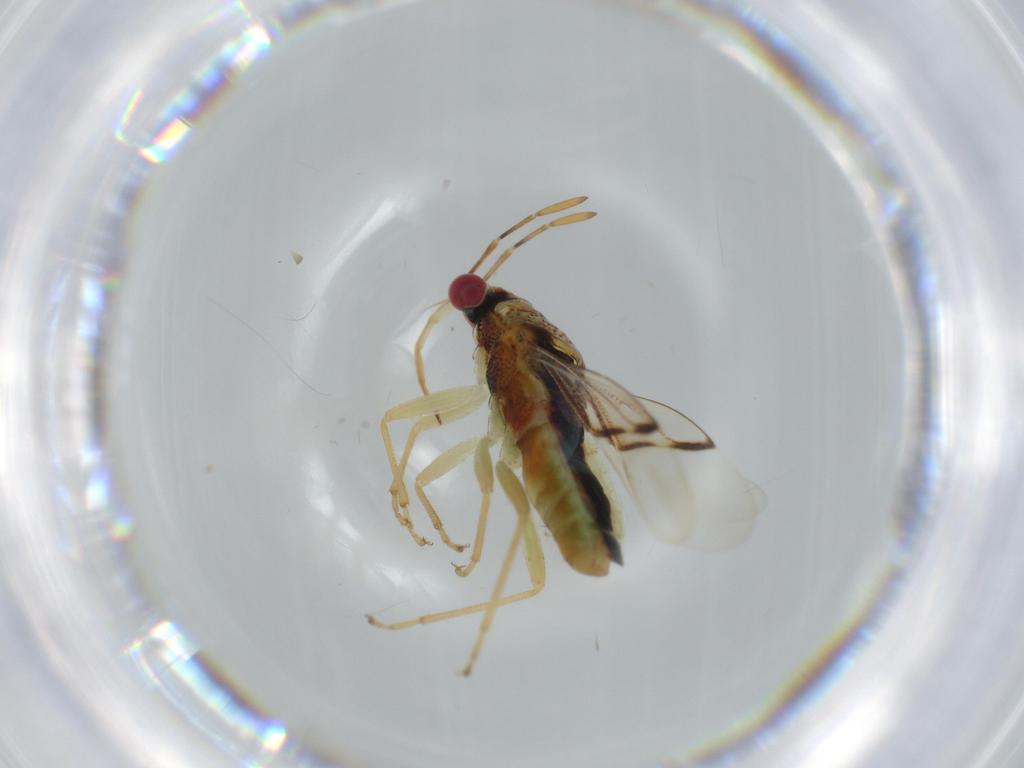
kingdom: Animalia
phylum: Arthropoda
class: Insecta
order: Hemiptera
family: Geocoridae
